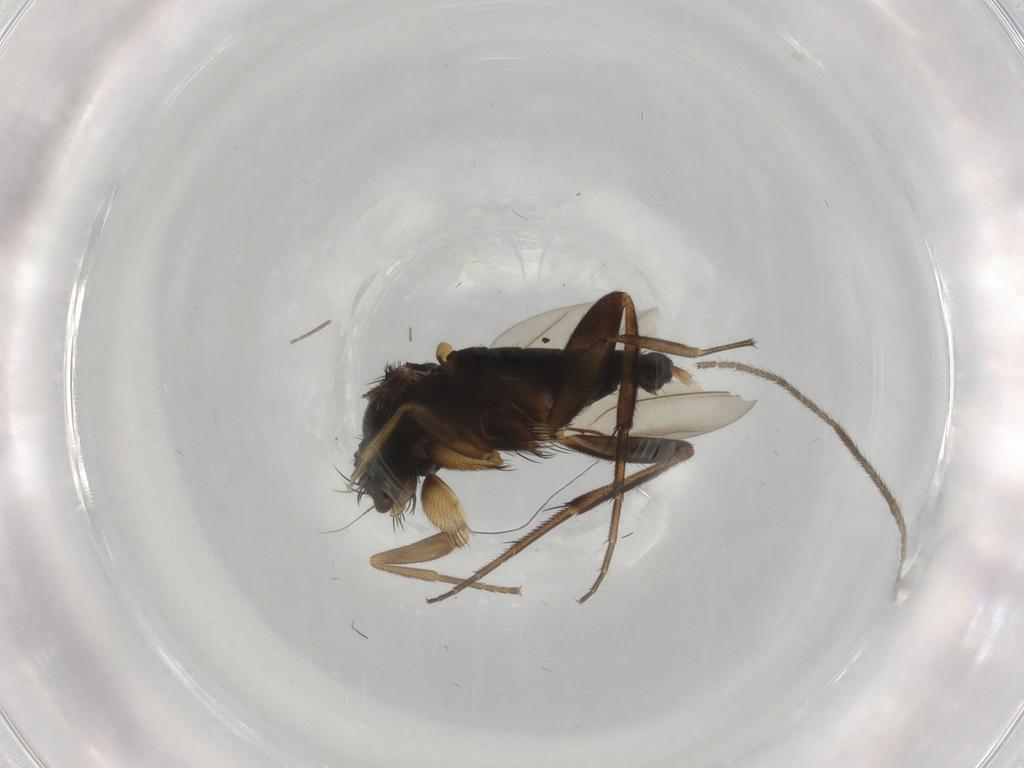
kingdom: Animalia
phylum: Arthropoda
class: Insecta
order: Diptera
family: Phoridae
